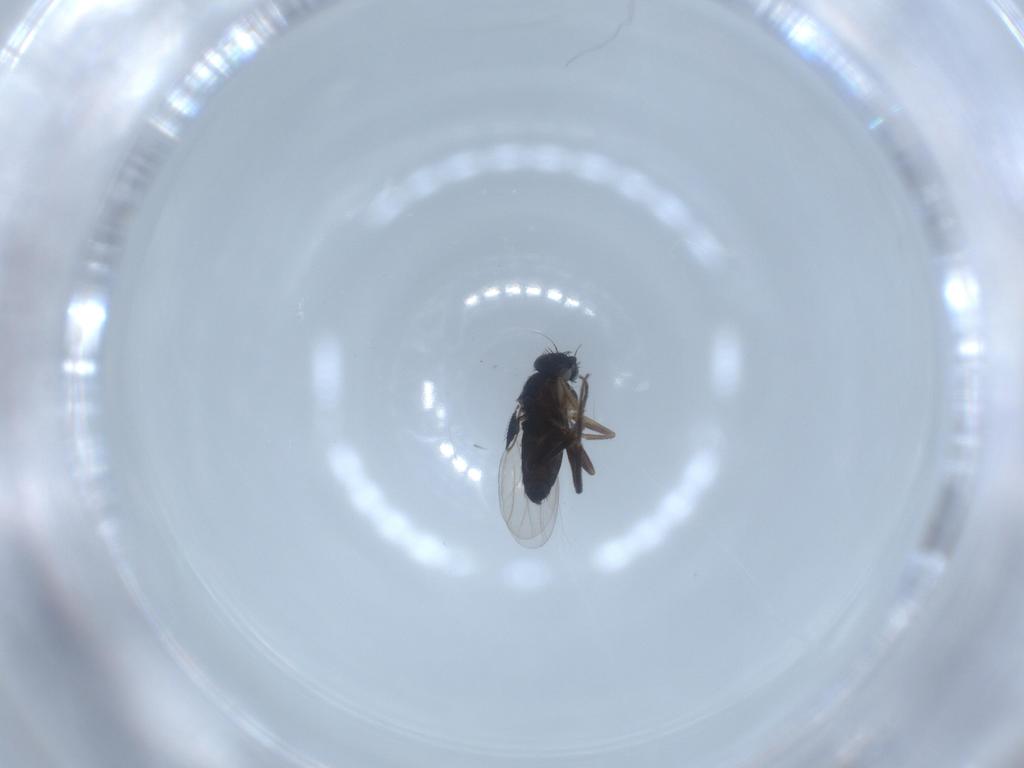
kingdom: Animalia
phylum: Arthropoda
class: Insecta
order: Diptera
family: Phoridae
